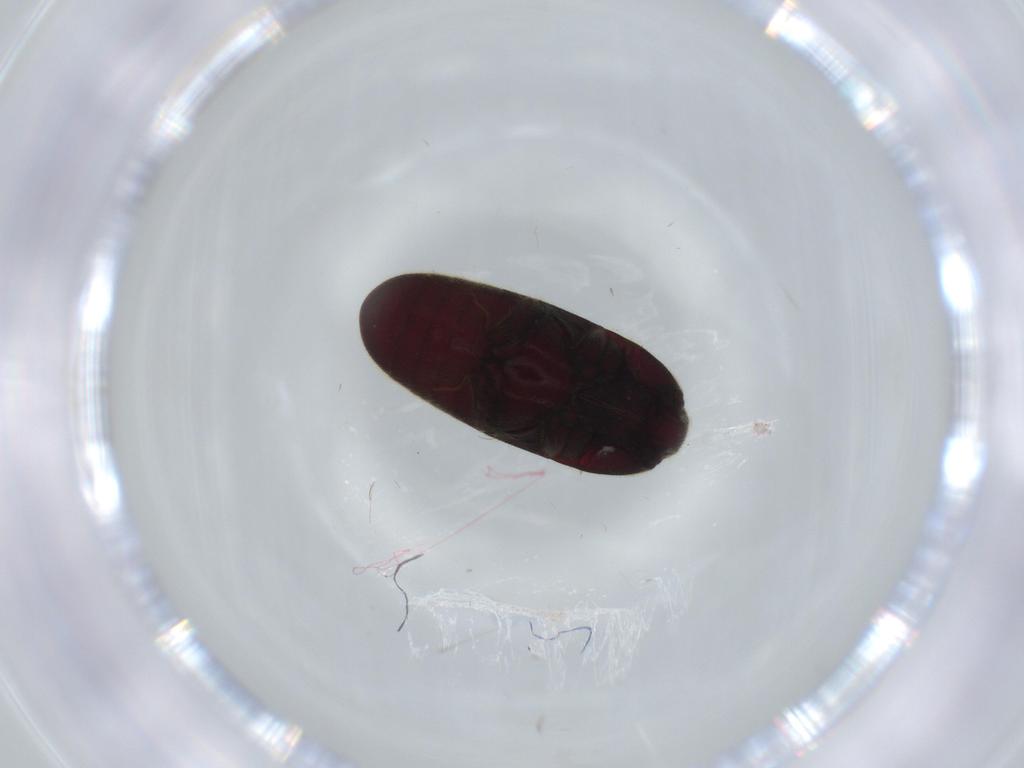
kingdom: Animalia
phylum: Arthropoda
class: Insecta
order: Coleoptera
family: Throscidae
